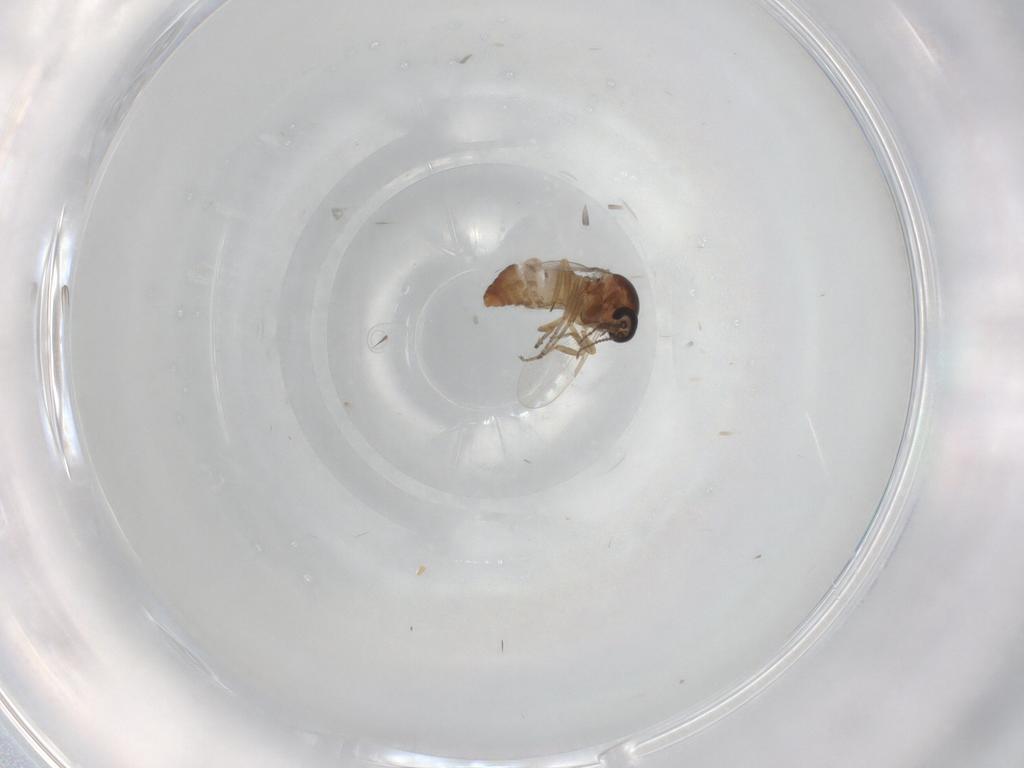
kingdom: Animalia
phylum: Arthropoda
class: Insecta
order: Diptera
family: Ceratopogonidae
